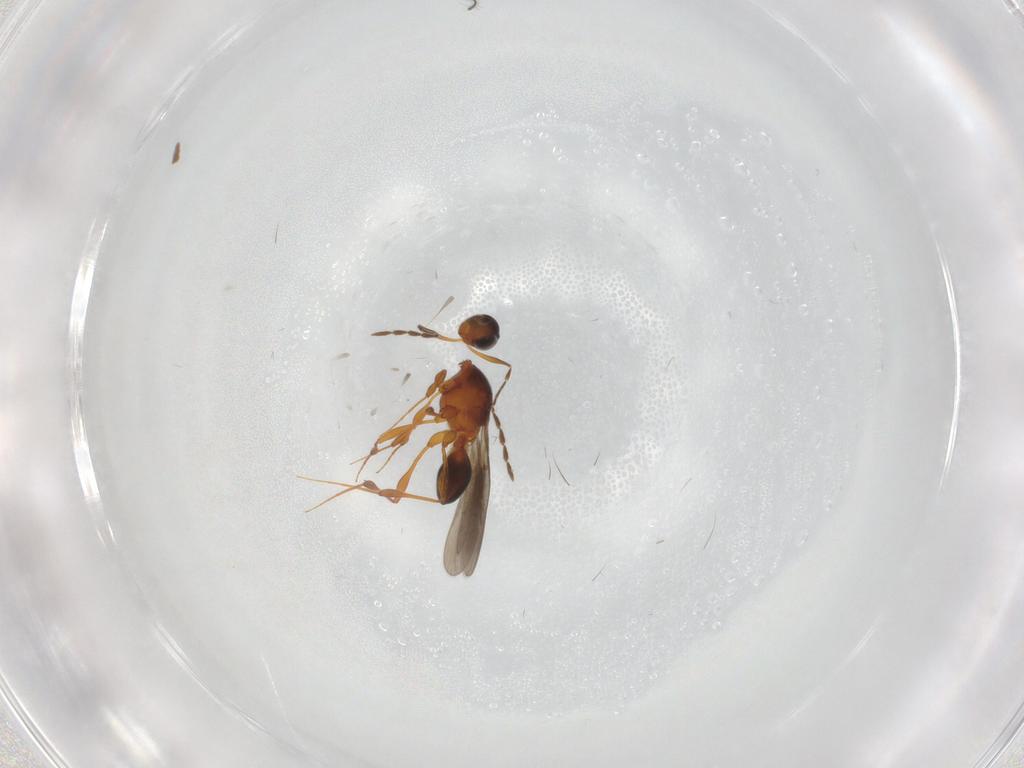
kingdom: Animalia
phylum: Arthropoda
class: Insecta
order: Hymenoptera
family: Platygastridae
